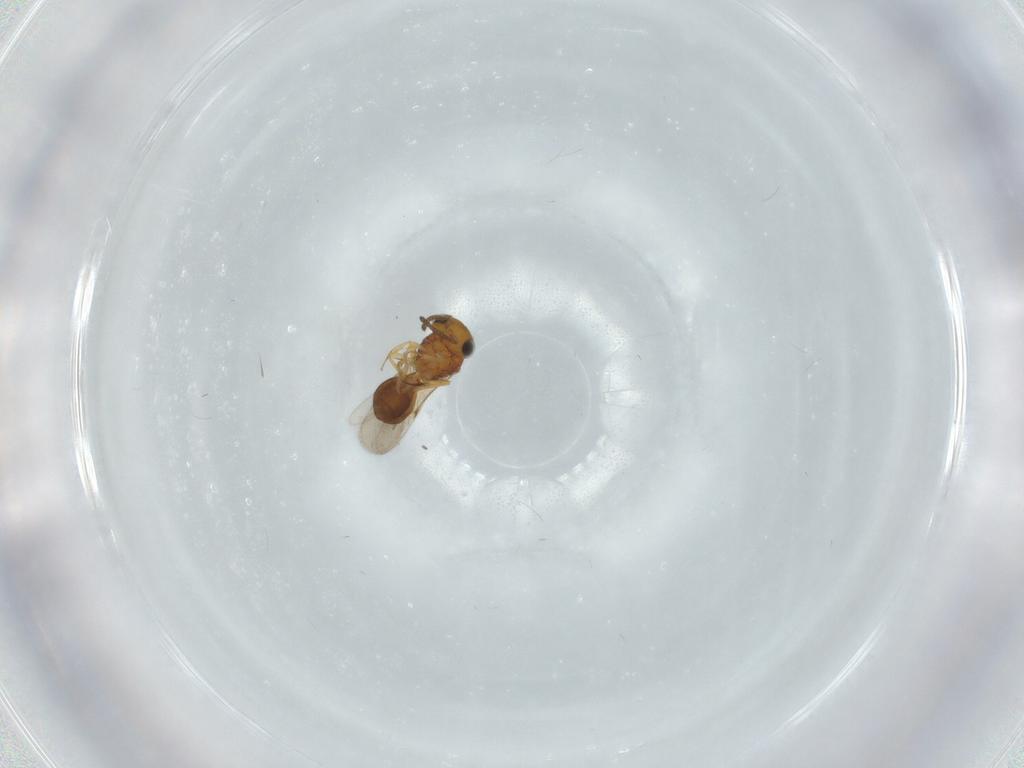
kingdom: Animalia
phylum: Arthropoda
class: Insecta
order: Hymenoptera
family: Scelionidae
